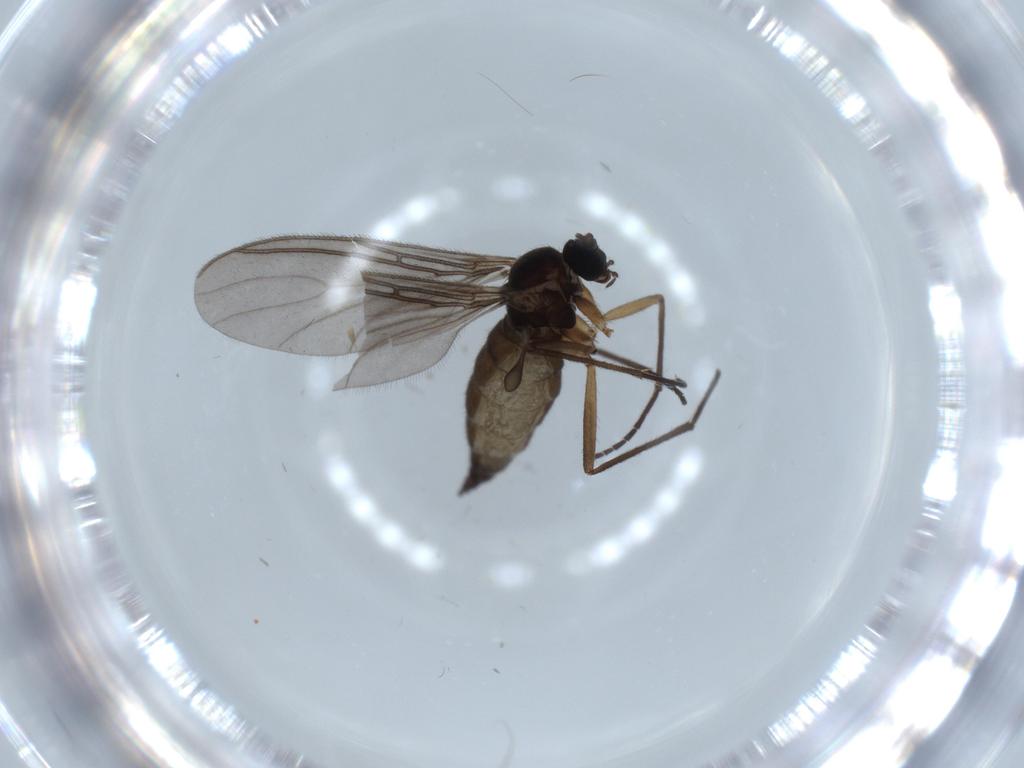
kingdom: Animalia
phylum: Arthropoda
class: Insecta
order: Diptera
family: Sciaridae
